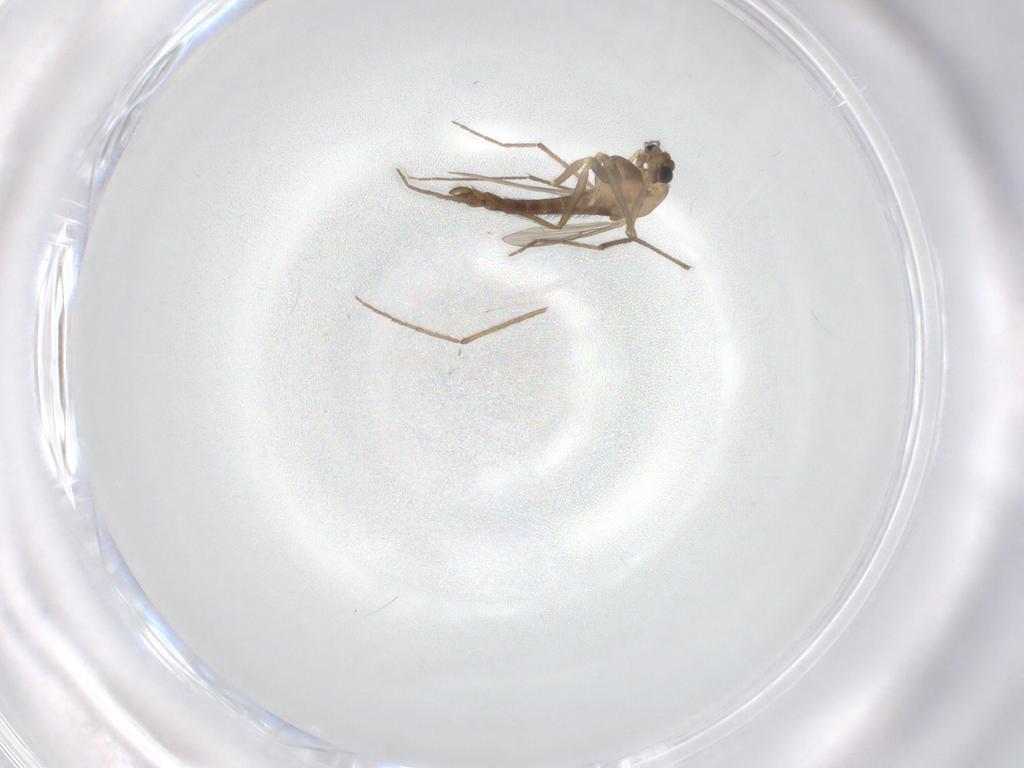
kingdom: Animalia
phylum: Arthropoda
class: Insecta
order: Diptera
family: Chironomidae
